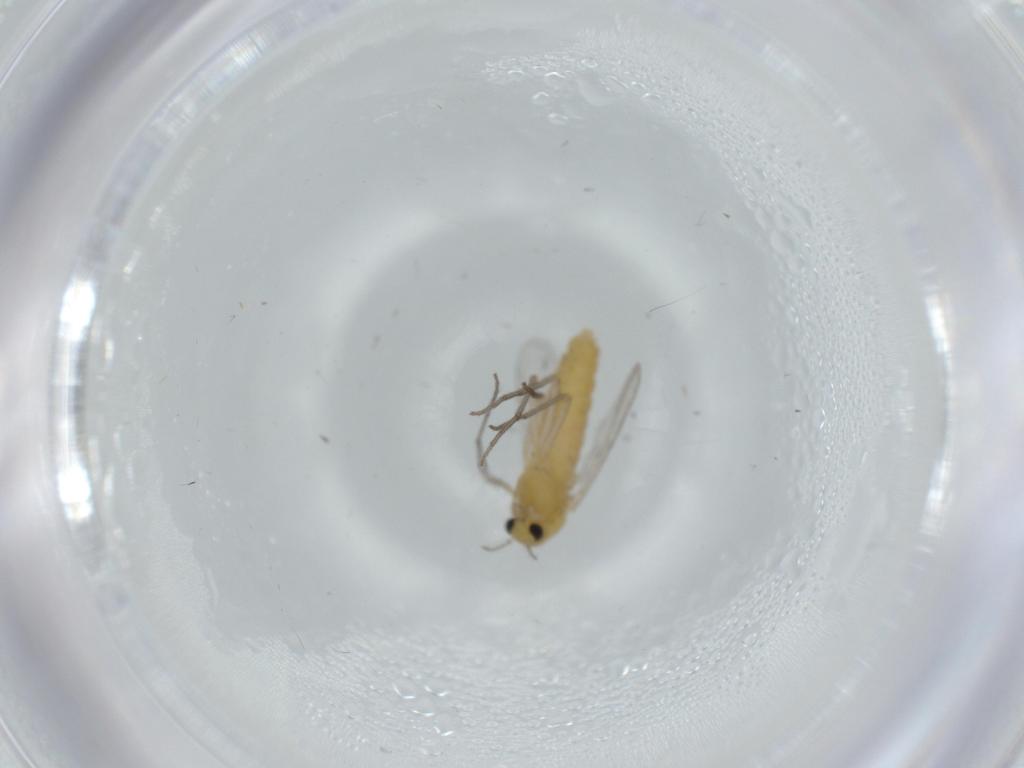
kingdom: Animalia
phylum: Arthropoda
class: Insecta
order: Diptera
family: Chironomidae
